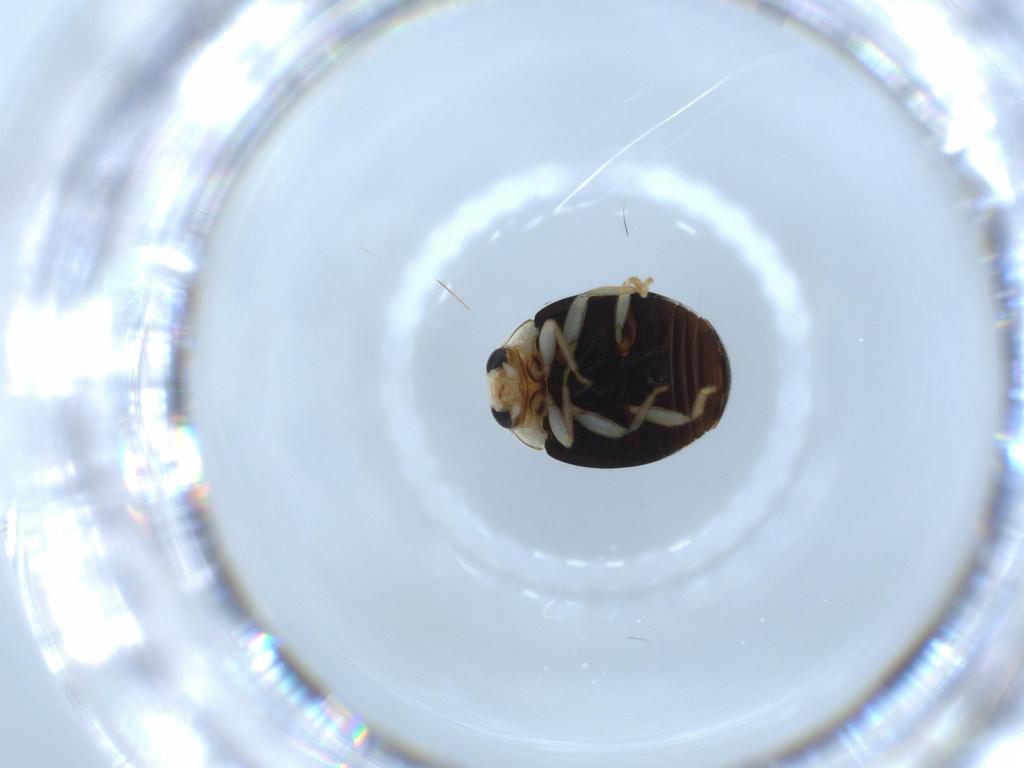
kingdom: Animalia
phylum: Arthropoda
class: Insecta
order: Coleoptera
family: Coccinellidae
